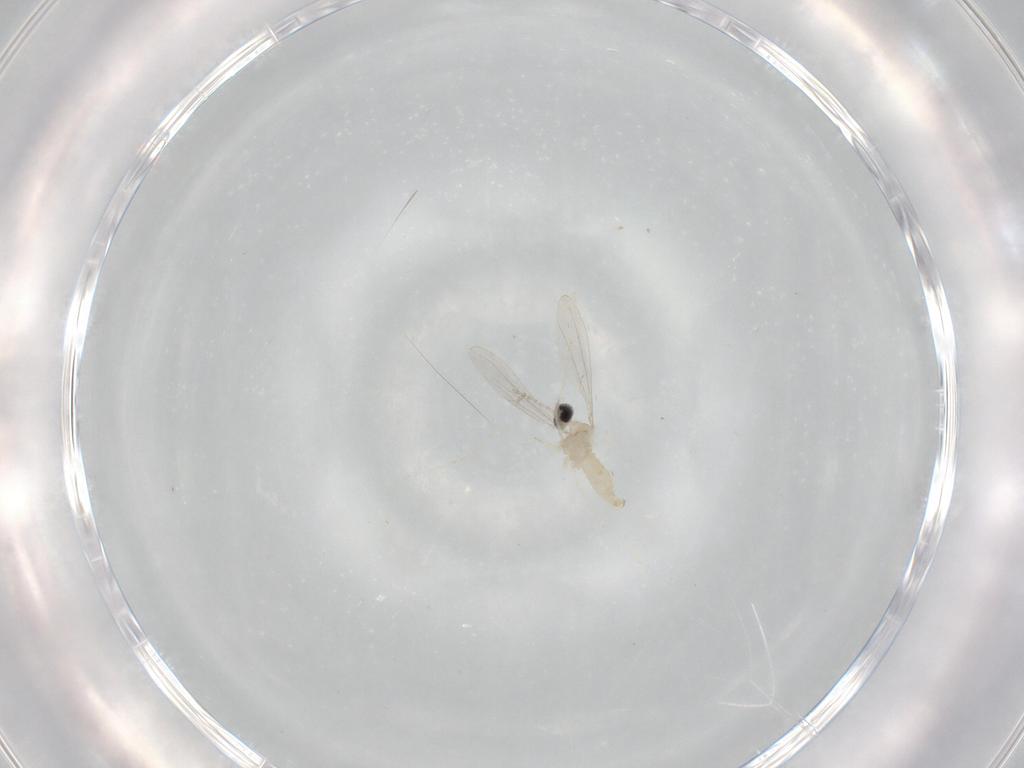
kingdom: Animalia
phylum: Arthropoda
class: Insecta
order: Diptera
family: Cecidomyiidae
